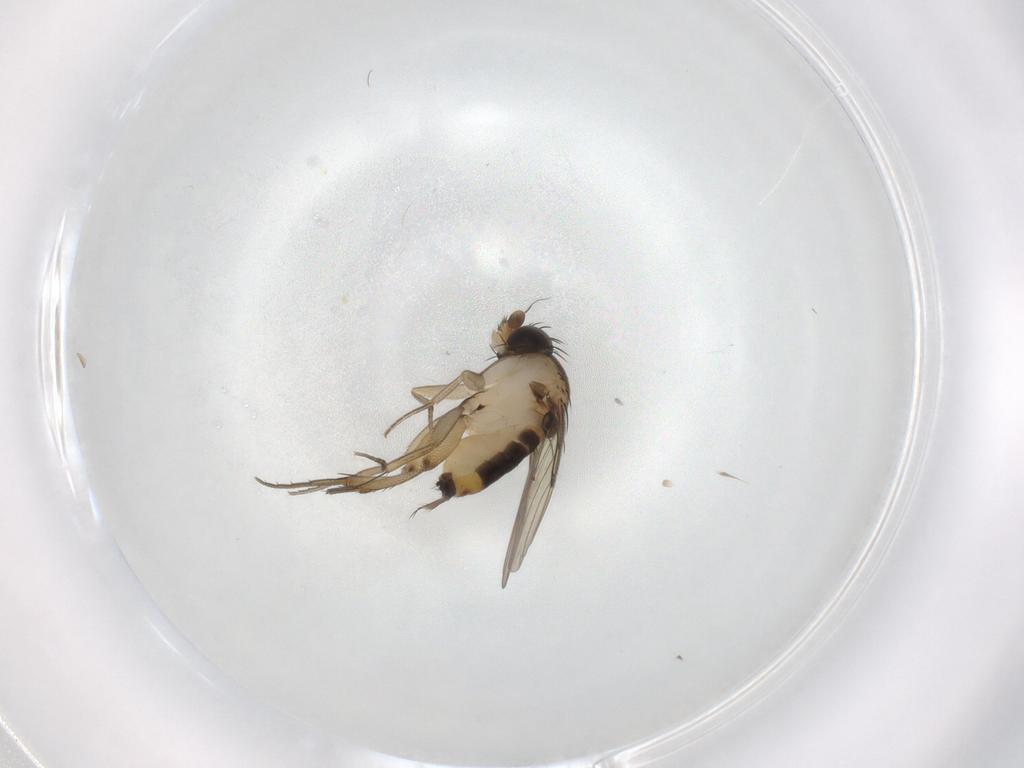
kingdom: Animalia
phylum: Arthropoda
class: Insecta
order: Diptera
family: Phoridae
